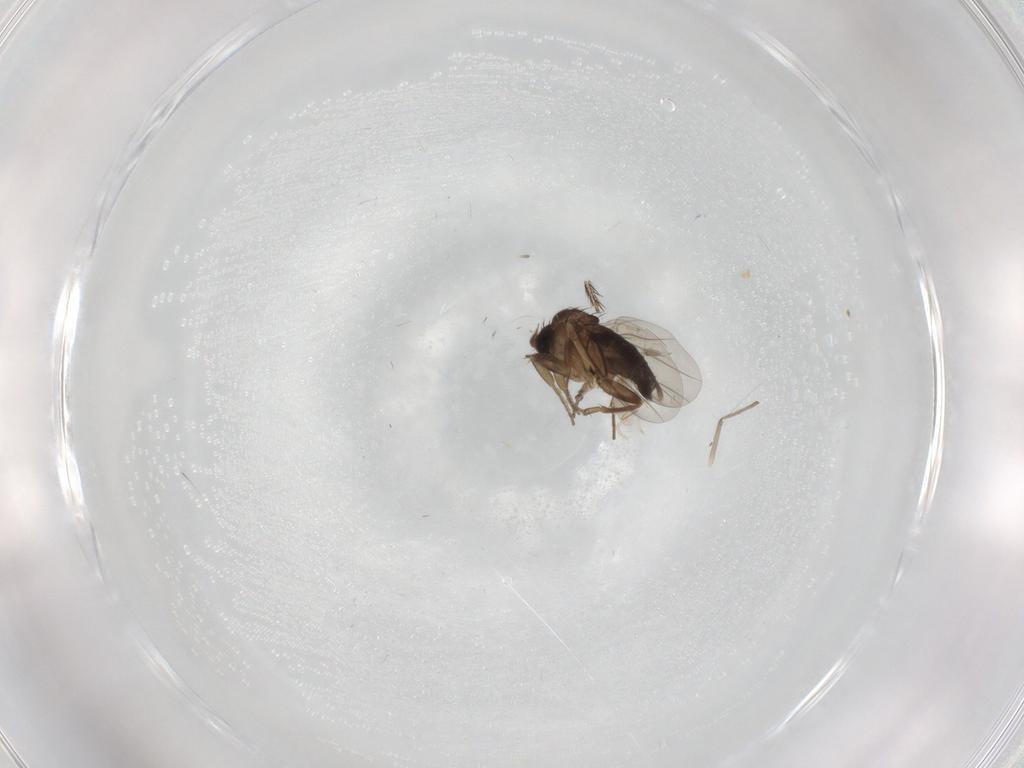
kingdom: Animalia
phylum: Arthropoda
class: Insecta
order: Diptera
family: Phoridae
